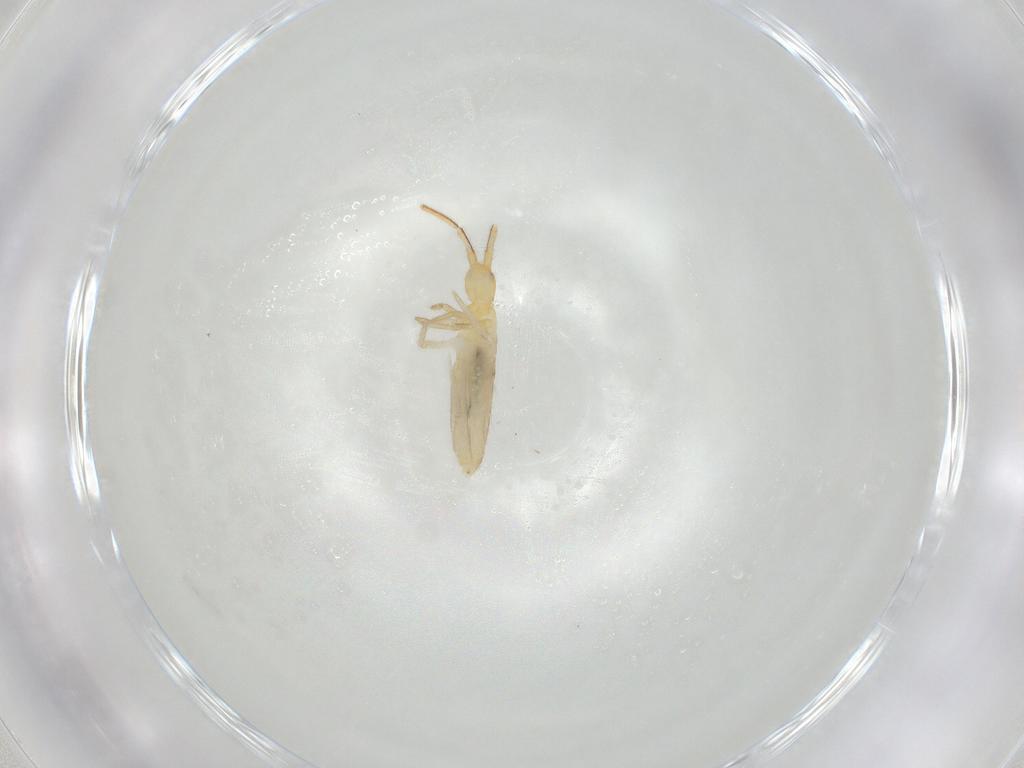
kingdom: Animalia
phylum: Arthropoda
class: Collembola
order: Entomobryomorpha
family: Entomobryidae
